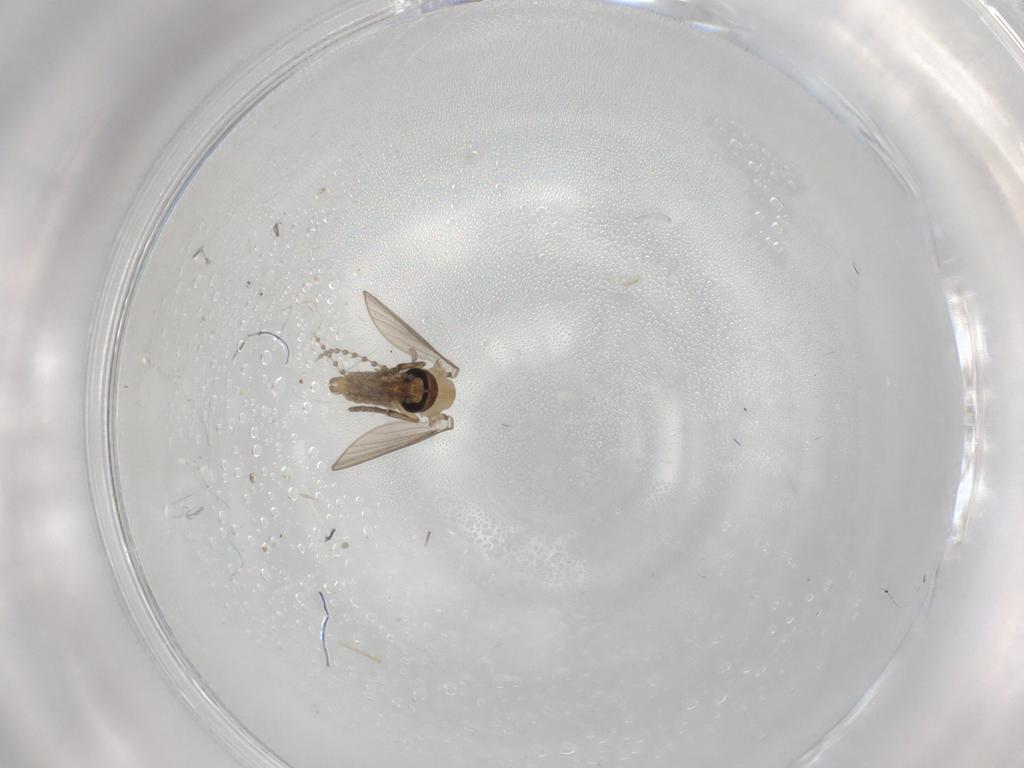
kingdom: Animalia
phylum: Arthropoda
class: Insecta
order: Diptera
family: Psychodidae
